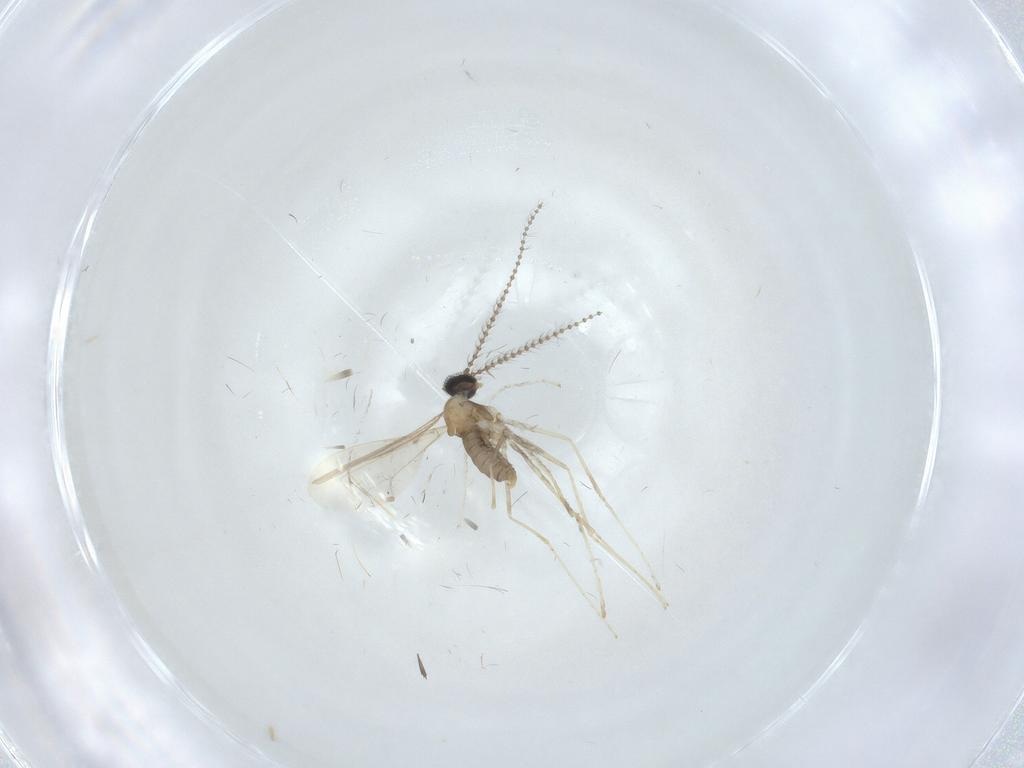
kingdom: Animalia
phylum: Arthropoda
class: Insecta
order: Diptera
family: Cecidomyiidae
